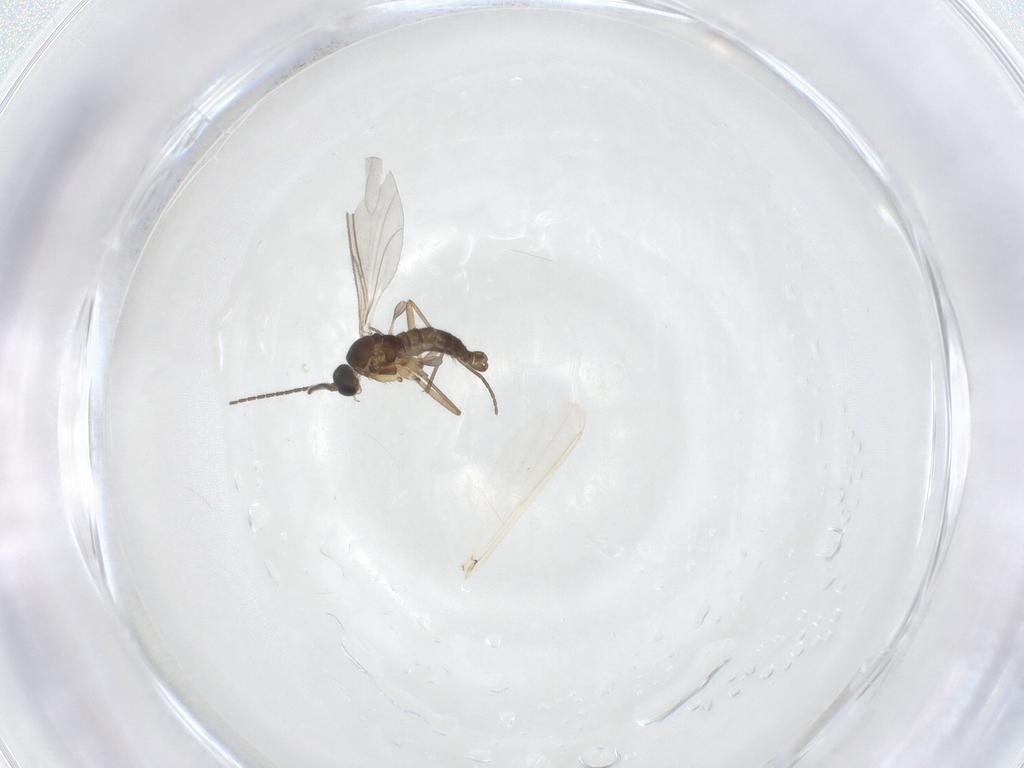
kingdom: Animalia
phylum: Arthropoda
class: Insecta
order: Diptera
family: Sciaridae
